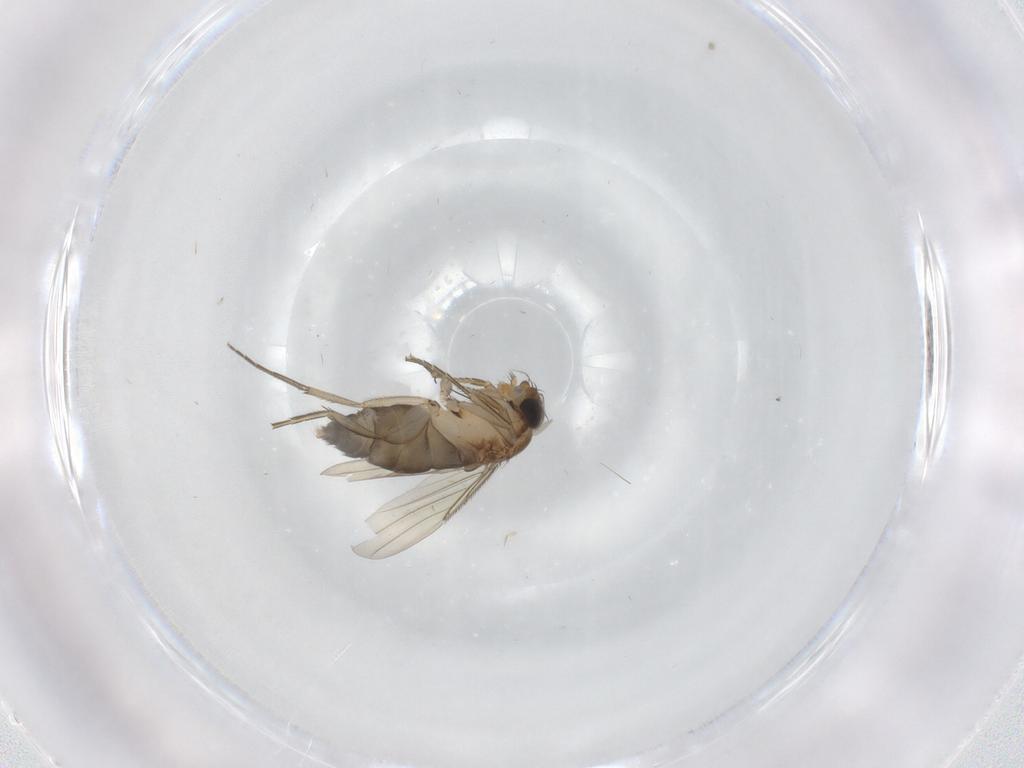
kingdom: Animalia
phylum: Arthropoda
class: Insecta
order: Diptera
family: Phoridae
